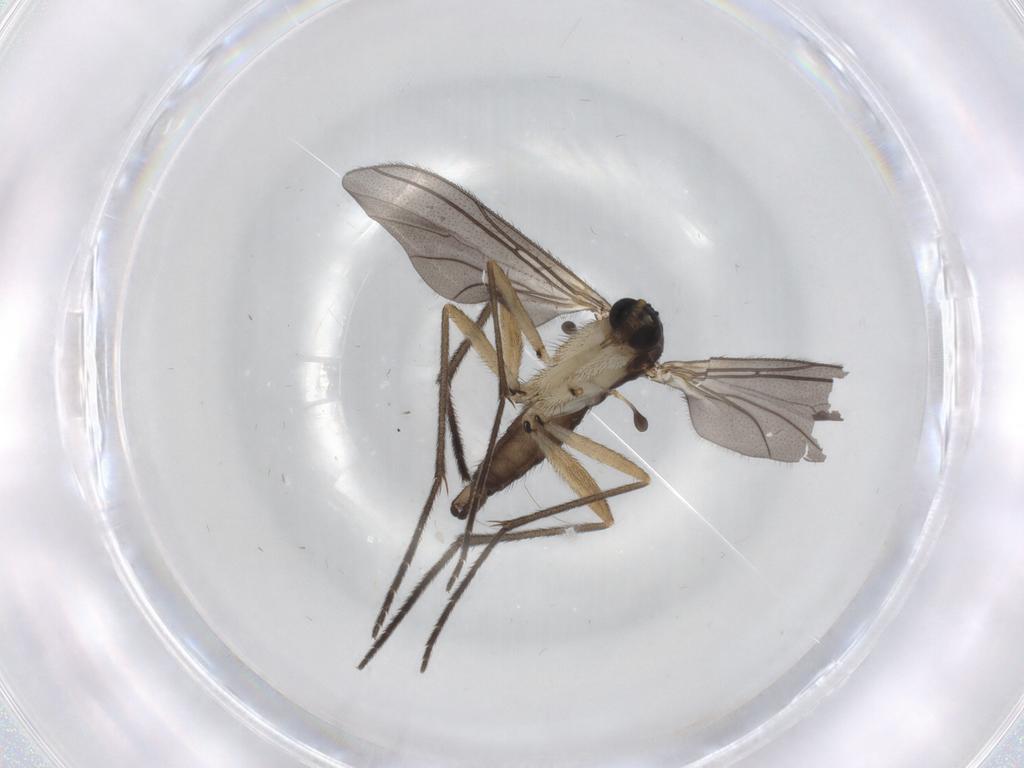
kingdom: Animalia
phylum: Arthropoda
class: Insecta
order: Diptera
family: Sciaridae
